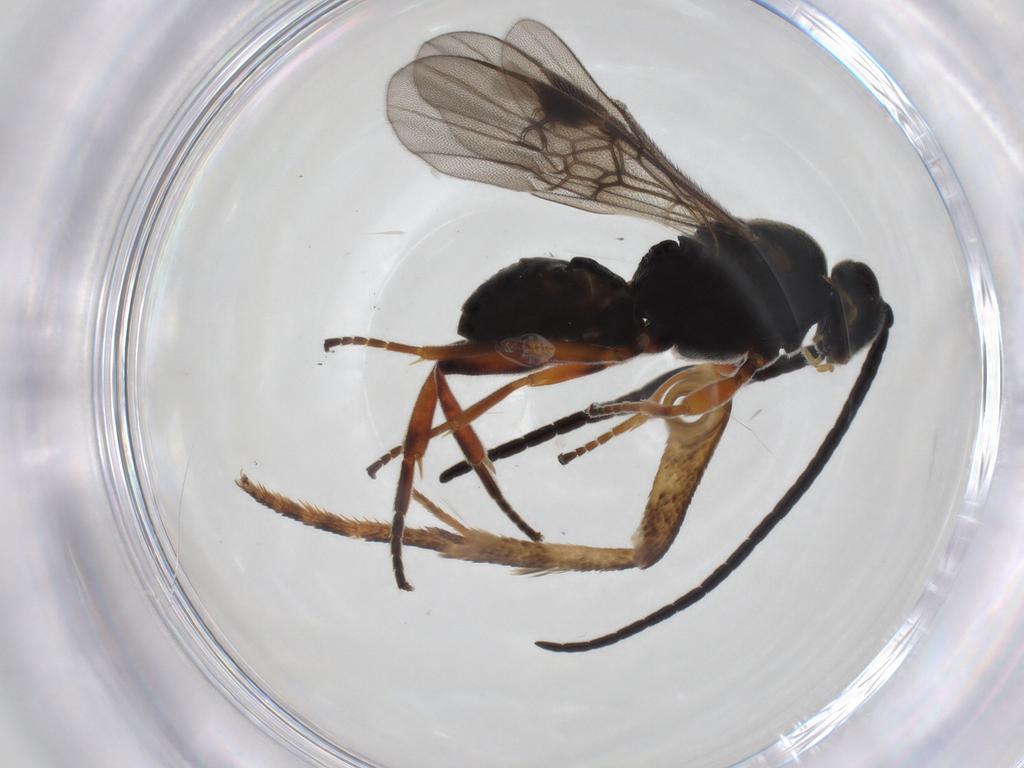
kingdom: Animalia
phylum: Arthropoda
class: Insecta
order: Hymenoptera
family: Braconidae
